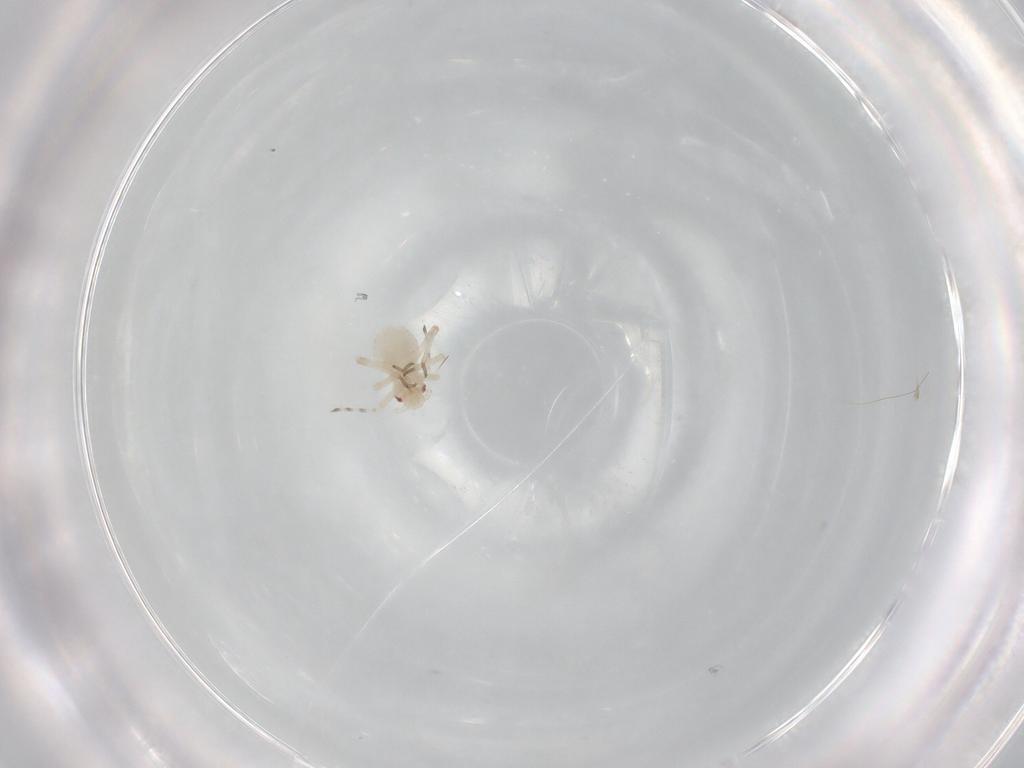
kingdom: Animalia
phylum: Arthropoda
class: Insecta
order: Hemiptera
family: Aphididae
